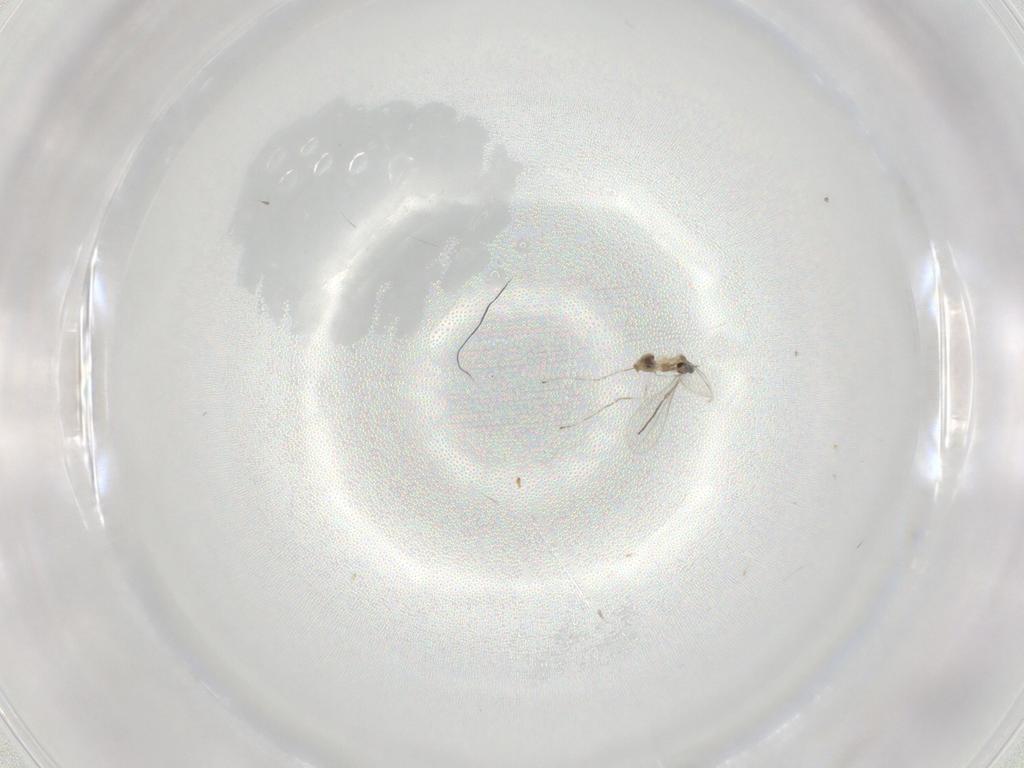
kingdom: Animalia
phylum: Arthropoda
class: Insecta
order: Diptera
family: Cecidomyiidae
